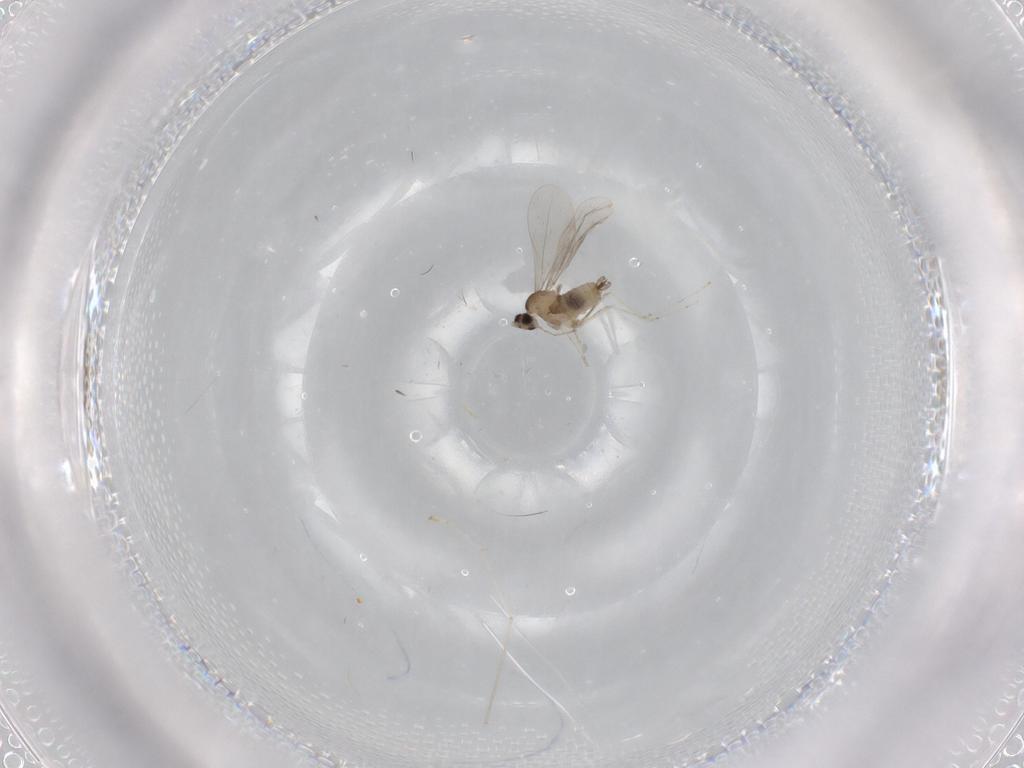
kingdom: Animalia
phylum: Arthropoda
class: Insecta
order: Diptera
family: Cecidomyiidae
